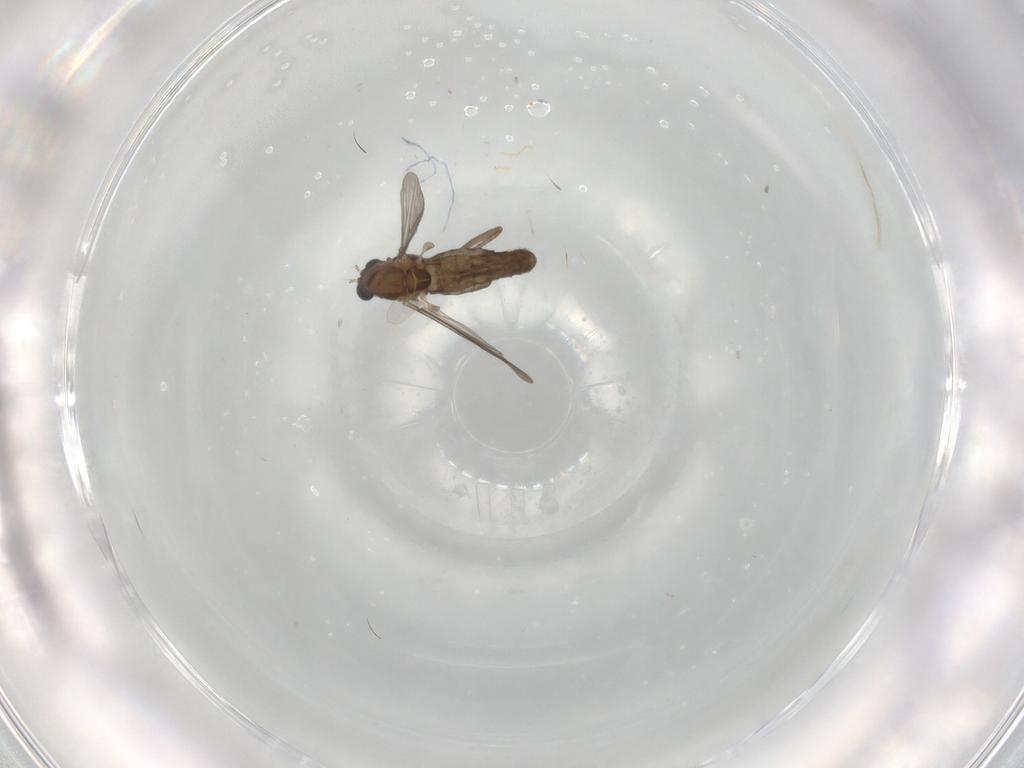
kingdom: Animalia
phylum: Arthropoda
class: Insecta
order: Diptera
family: Chironomidae
